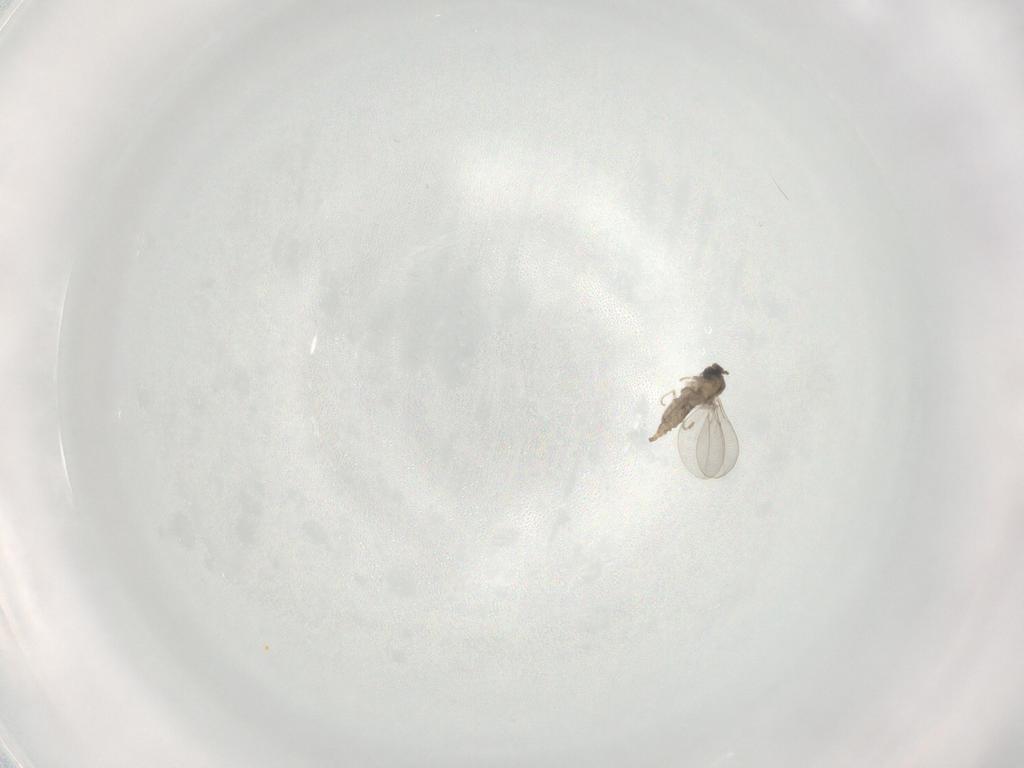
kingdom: Animalia
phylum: Arthropoda
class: Insecta
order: Diptera
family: Cecidomyiidae
